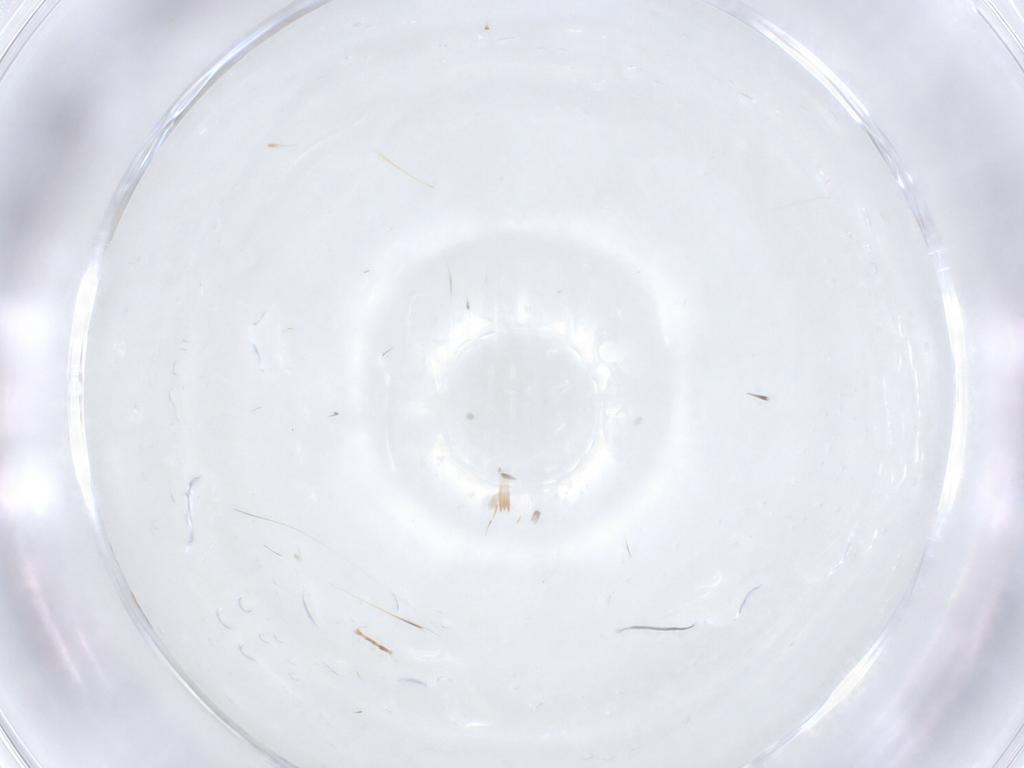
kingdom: Animalia
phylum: Arthropoda
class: Insecta
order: Lepidoptera
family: Gelechiidae
